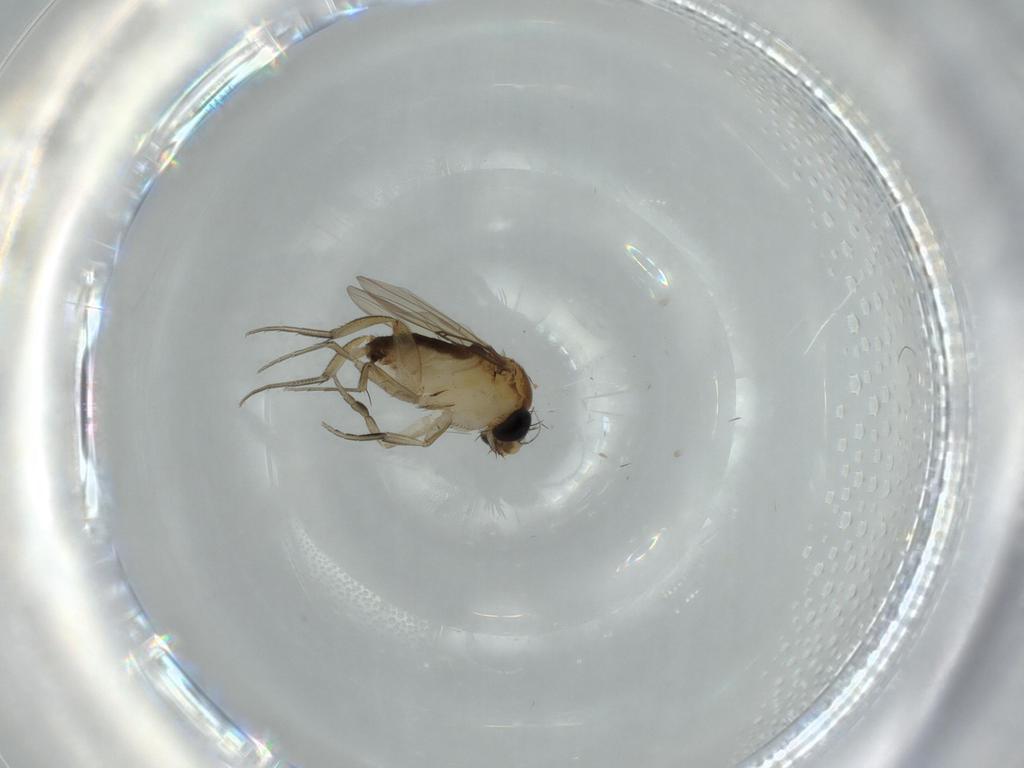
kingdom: Animalia
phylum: Arthropoda
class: Insecta
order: Diptera
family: Phoridae
